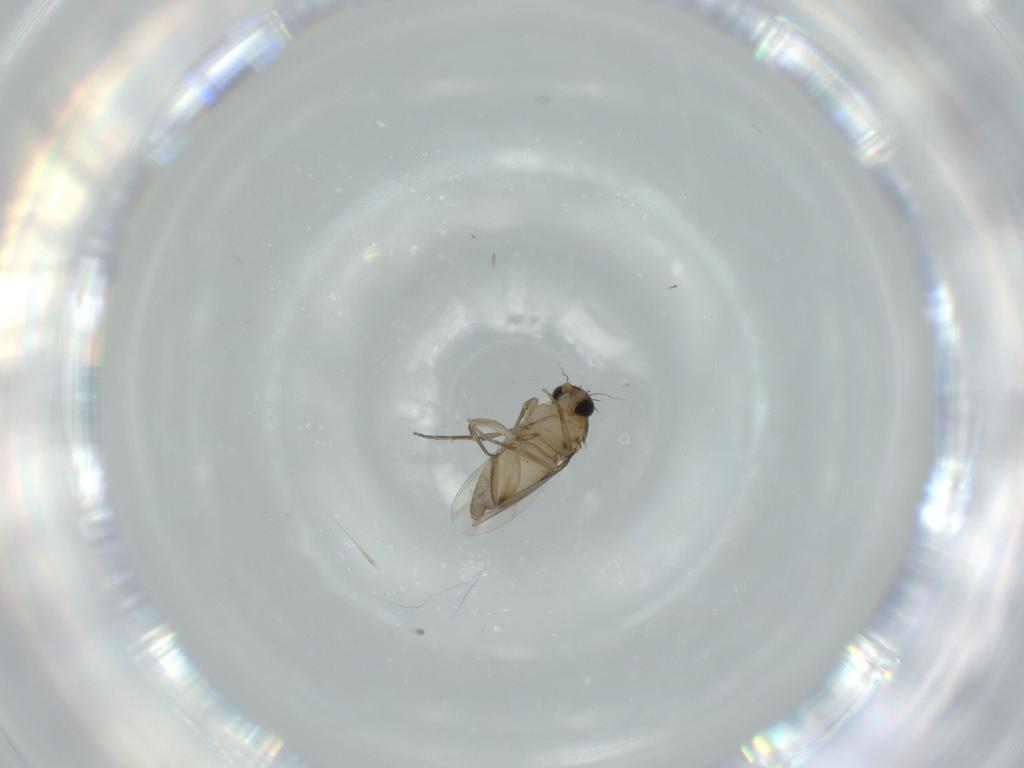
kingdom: Animalia
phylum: Arthropoda
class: Insecta
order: Diptera
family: Phoridae
